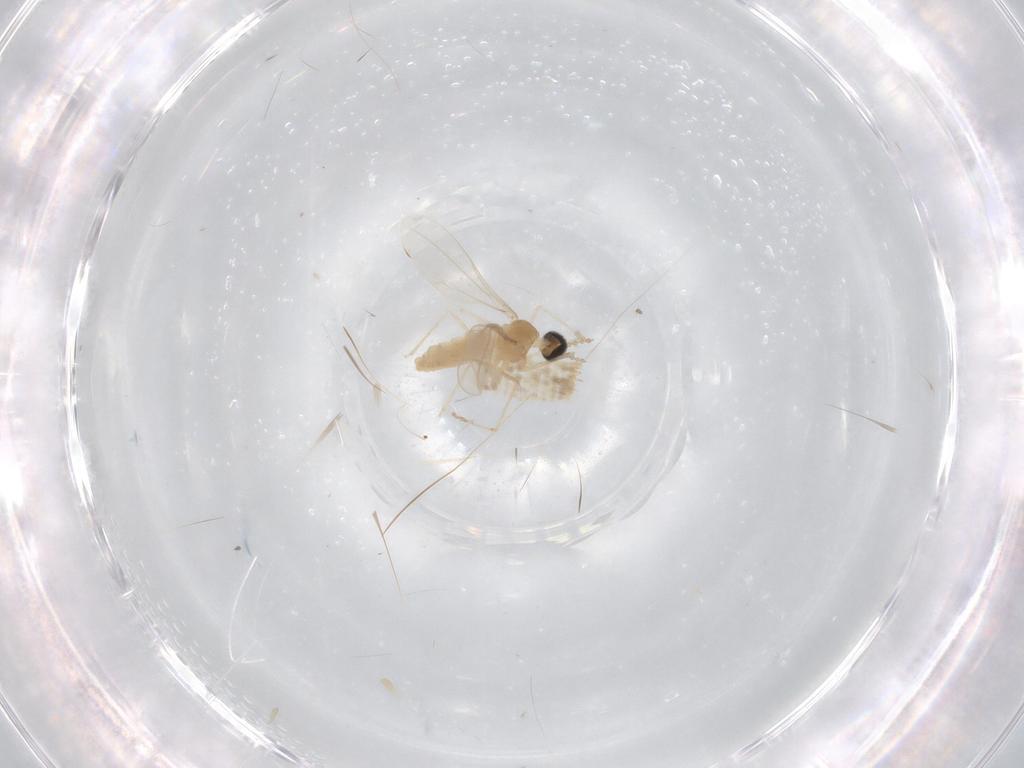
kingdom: Animalia
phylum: Arthropoda
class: Insecta
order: Diptera
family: Cecidomyiidae
